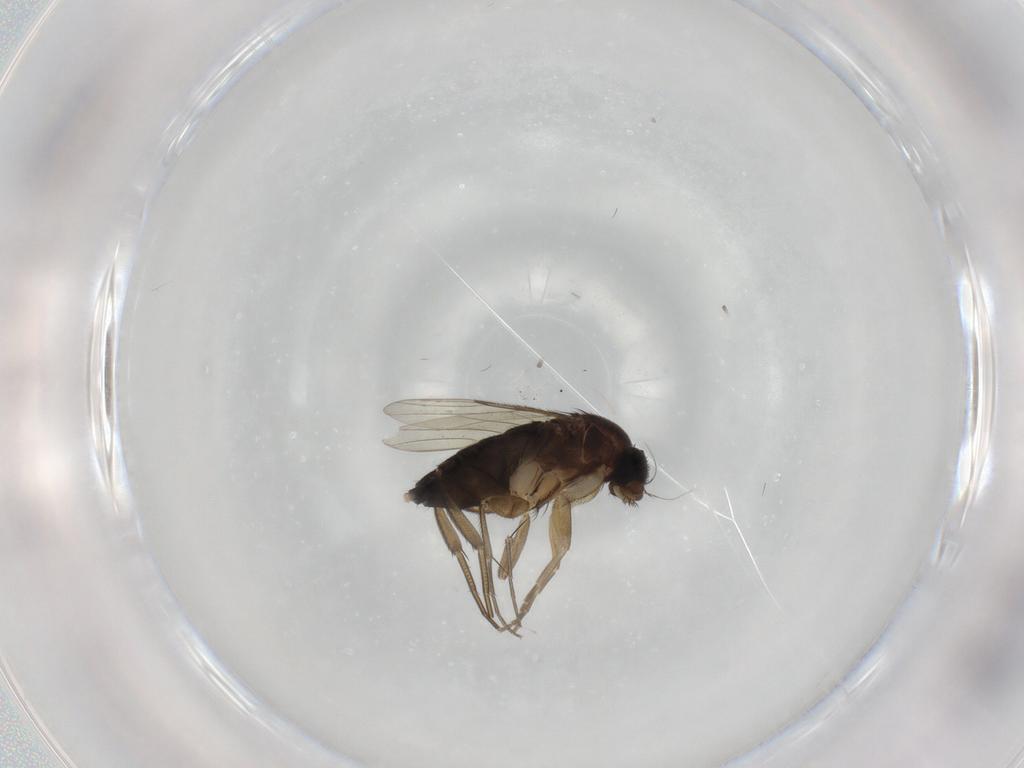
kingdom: Animalia
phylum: Arthropoda
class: Insecta
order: Diptera
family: Phoridae
